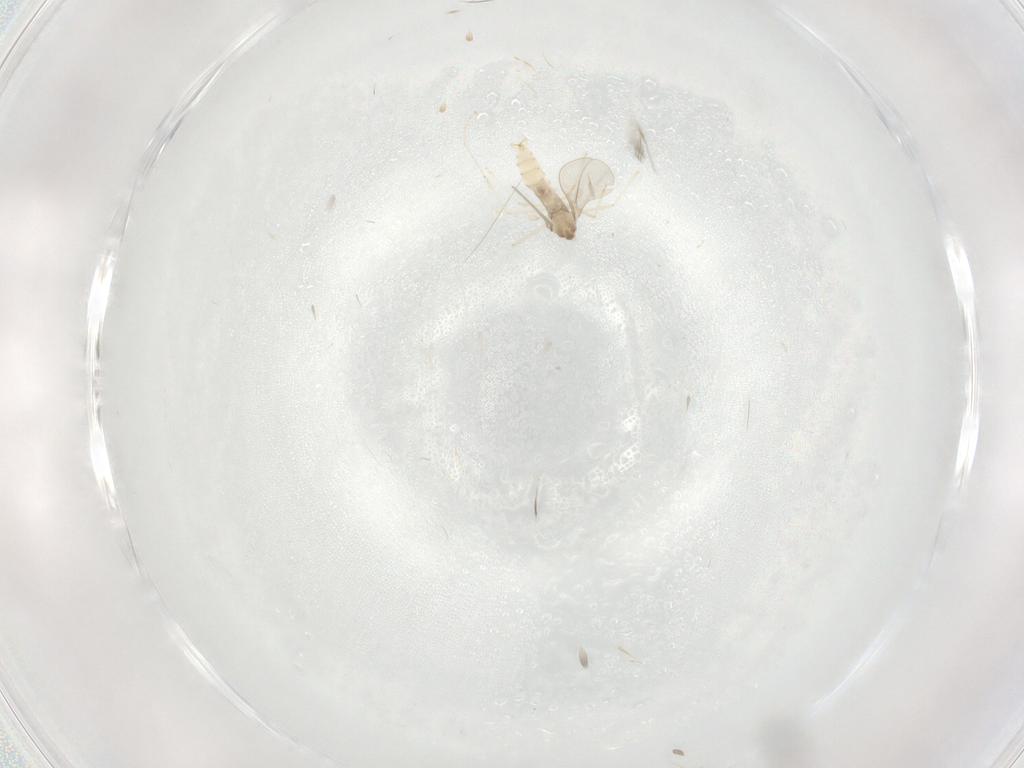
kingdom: Animalia
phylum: Arthropoda
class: Insecta
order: Diptera
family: Cecidomyiidae
